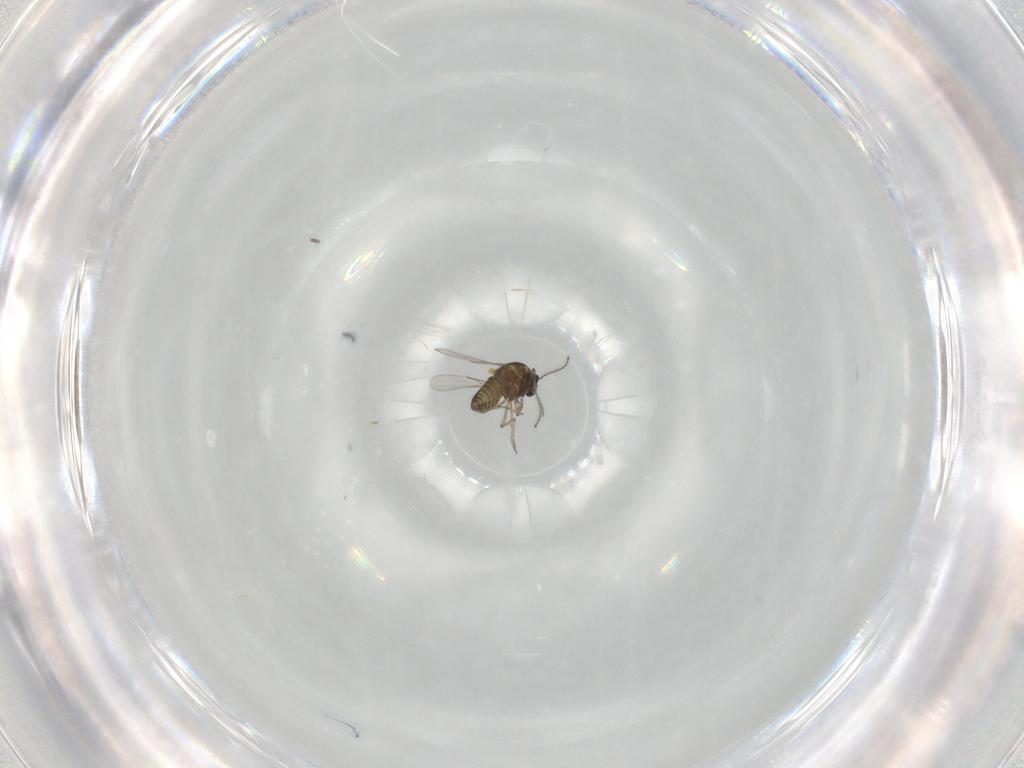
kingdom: Animalia
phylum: Arthropoda
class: Insecta
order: Diptera
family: Ceratopogonidae
